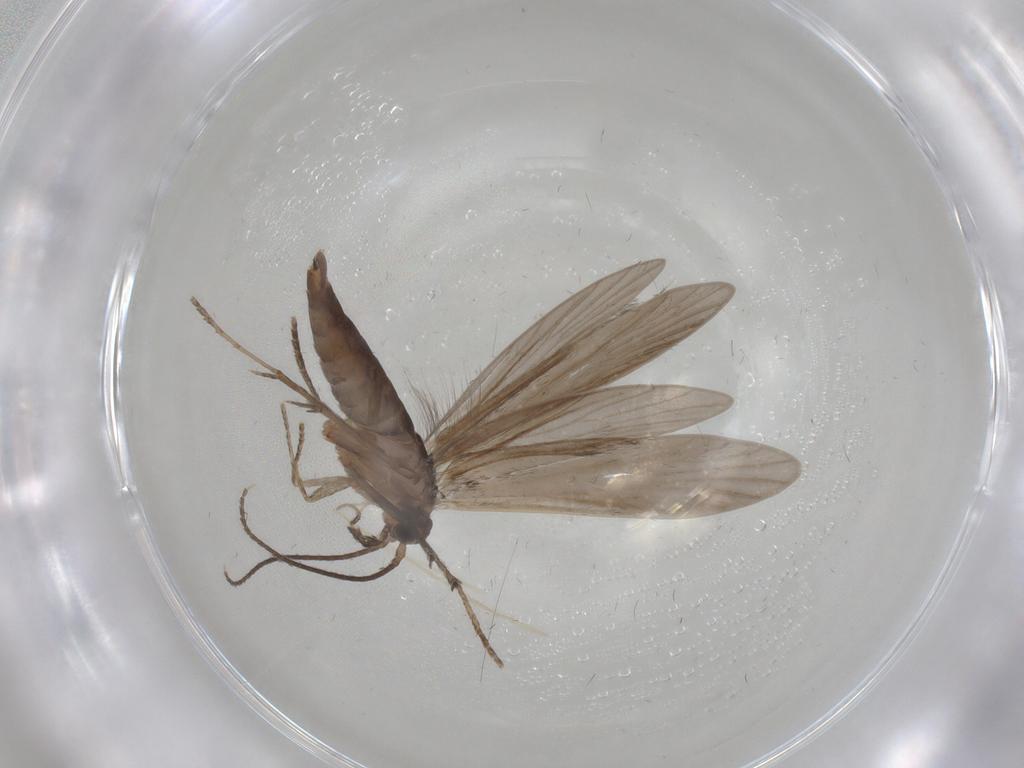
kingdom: Animalia
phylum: Arthropoda
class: Insecta
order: Trichoptera
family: Xiphocentronidae
